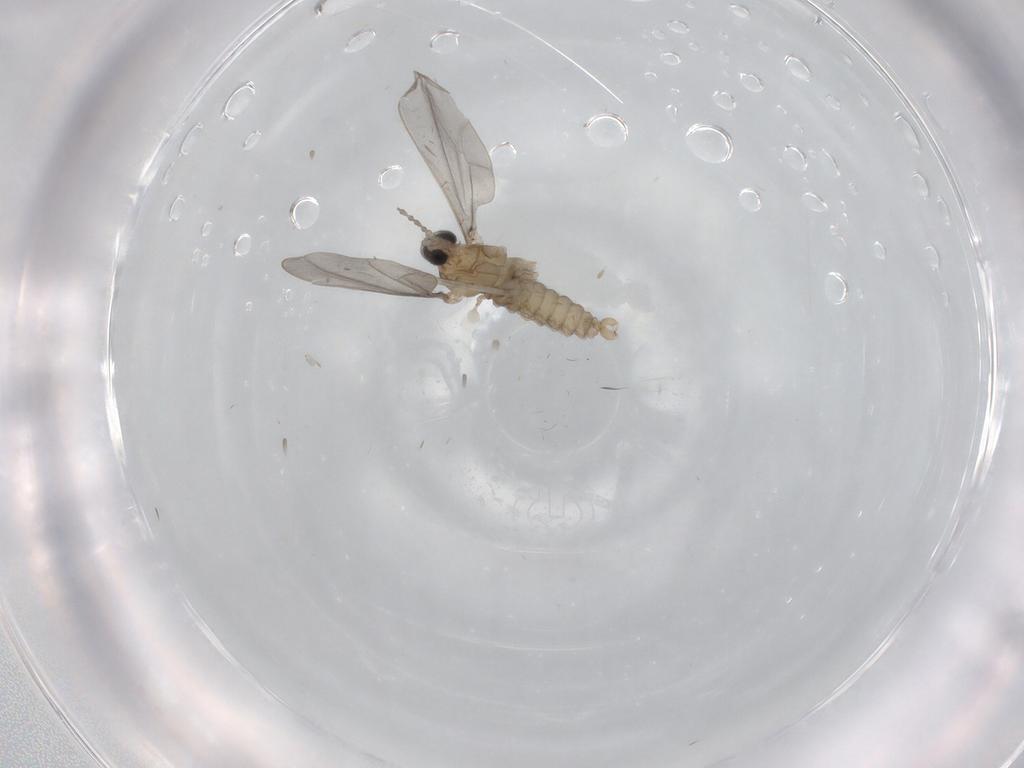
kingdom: Animalia
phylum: Arthropoda
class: Insecta
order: Diptera
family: Cecidomyiidae
